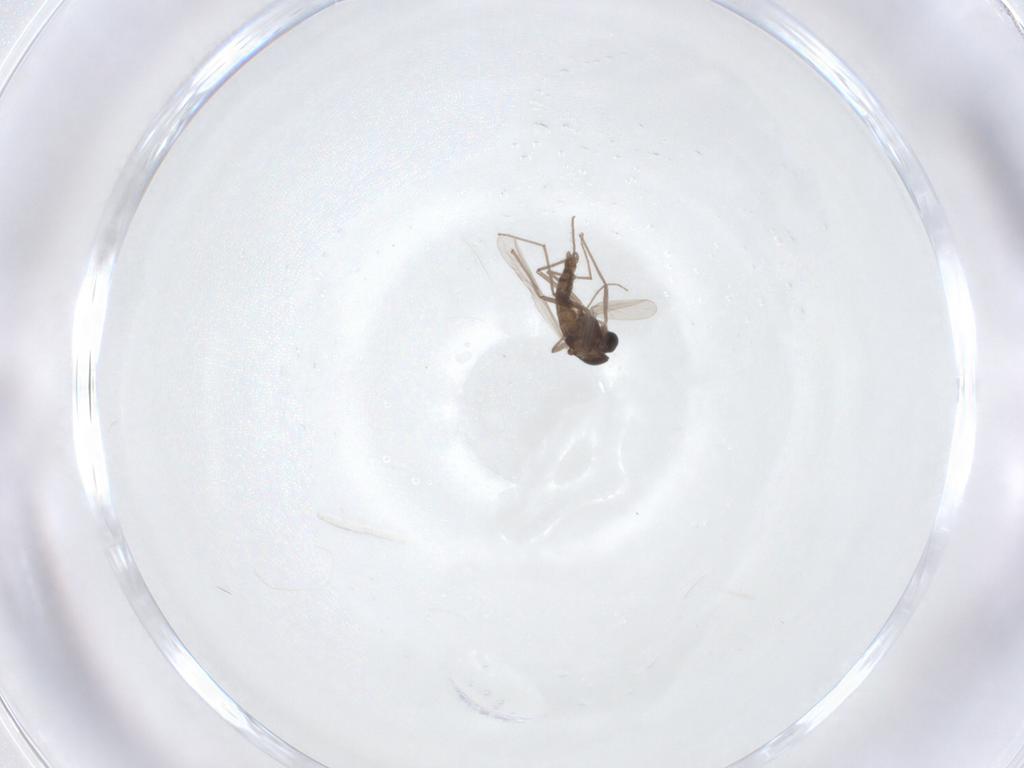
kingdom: Animalia
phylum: Arthropoda
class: Insecta
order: Diptera
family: Chironomidae
